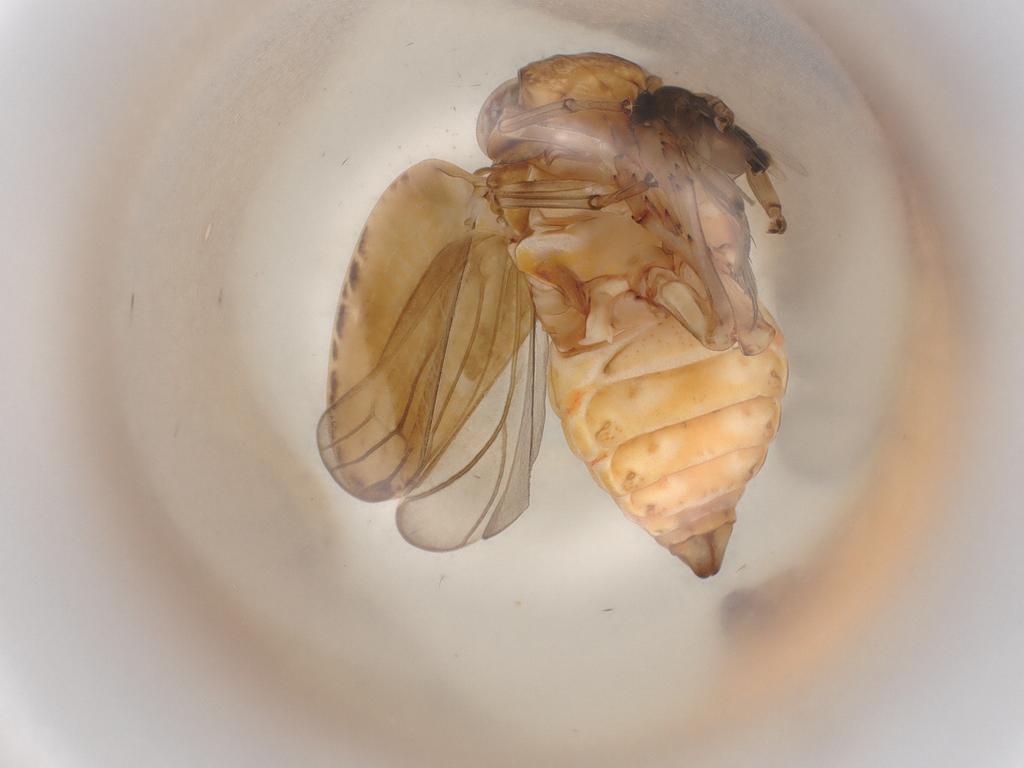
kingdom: Animalia
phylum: Arthropoda
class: Insecta
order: Hemiptera
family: Issidae
